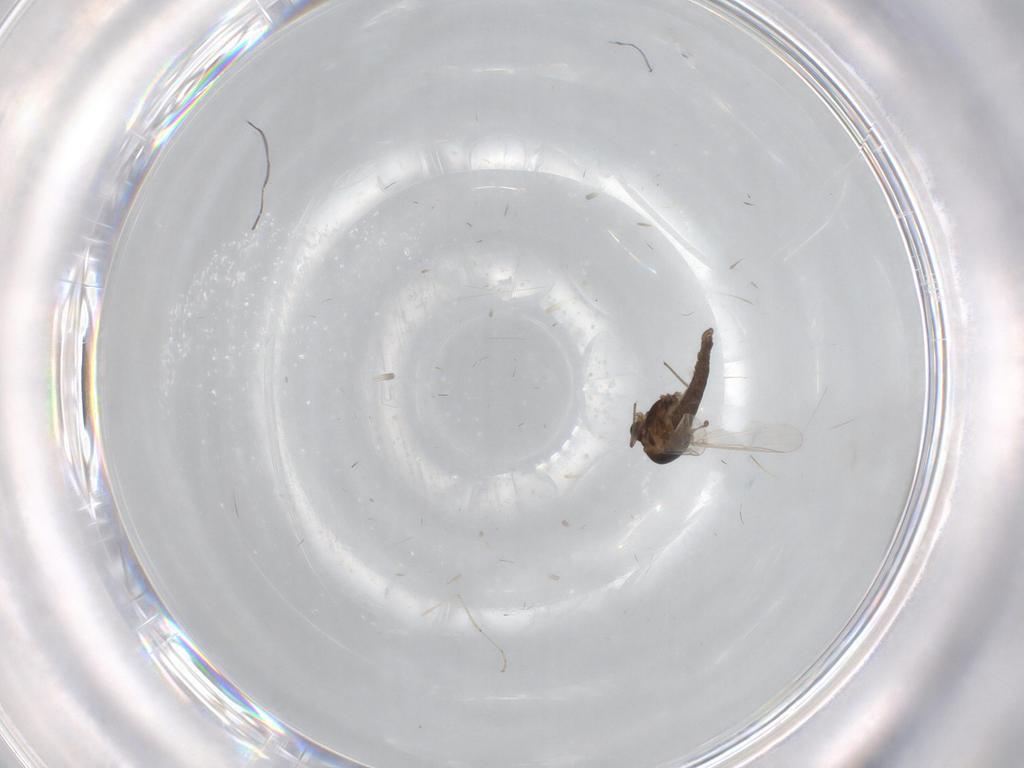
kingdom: Animalia
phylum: Arthropoda
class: Insecta
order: Diptera
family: Chironomidae
